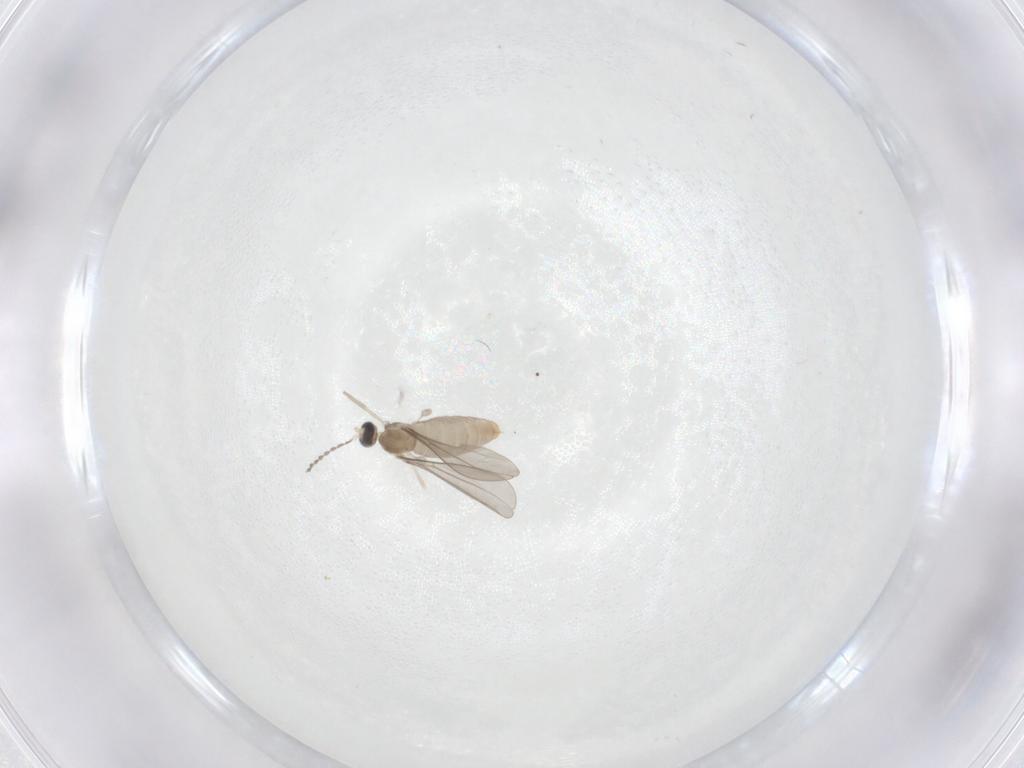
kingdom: Animalia
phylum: Arthropoda
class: Insecta
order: Diptera
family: Cecidomyiidae
